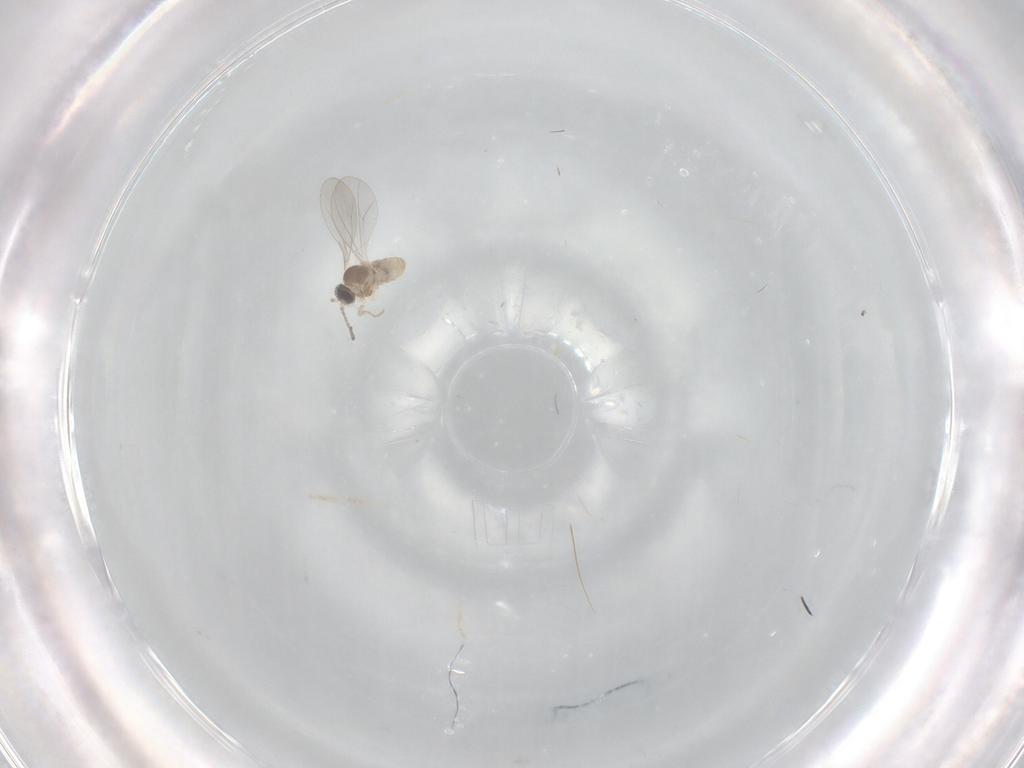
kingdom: Animalia
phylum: Arthropoda
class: Insecta
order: Diptera
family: Cecidomyiidae
